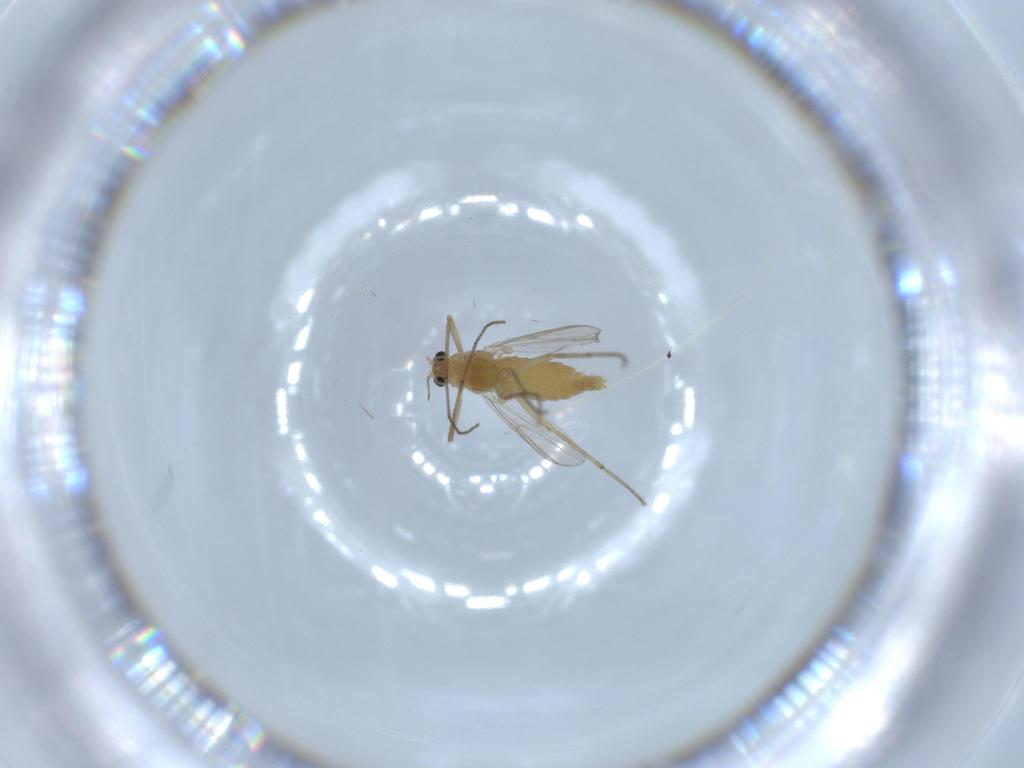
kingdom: Animalia
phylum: Arthropoda
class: Insecta
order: Diptera
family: Chironomidae
